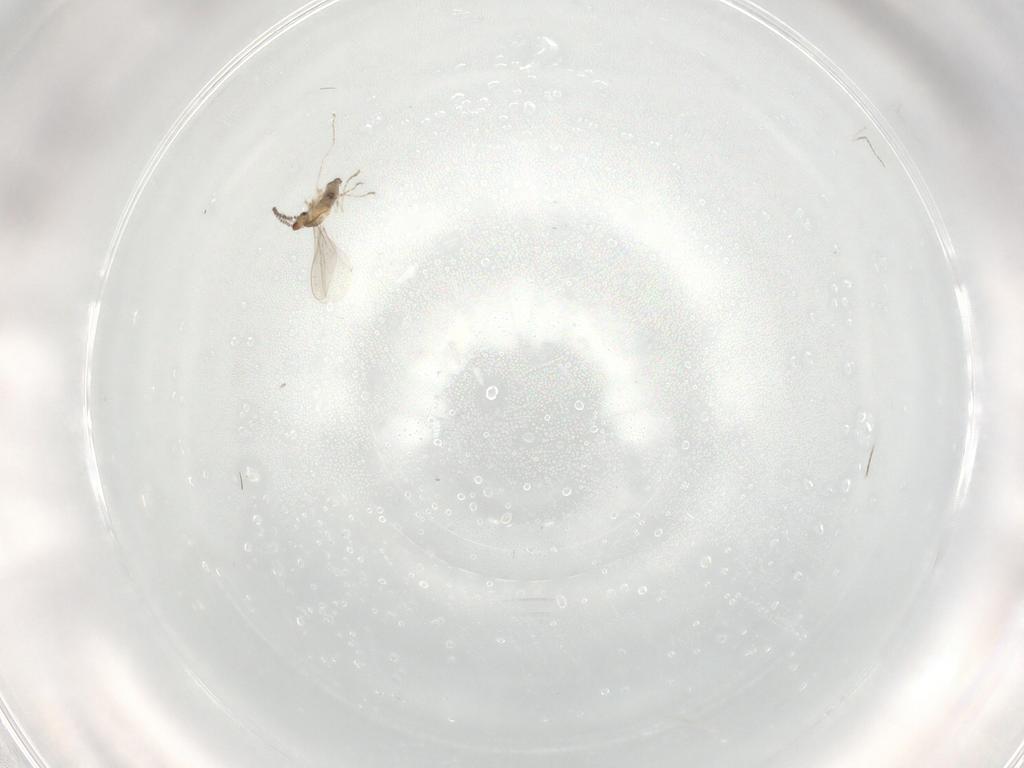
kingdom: Animalia
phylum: Arthropoda
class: Insecta
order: Diptera
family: Cecidomyiidae
